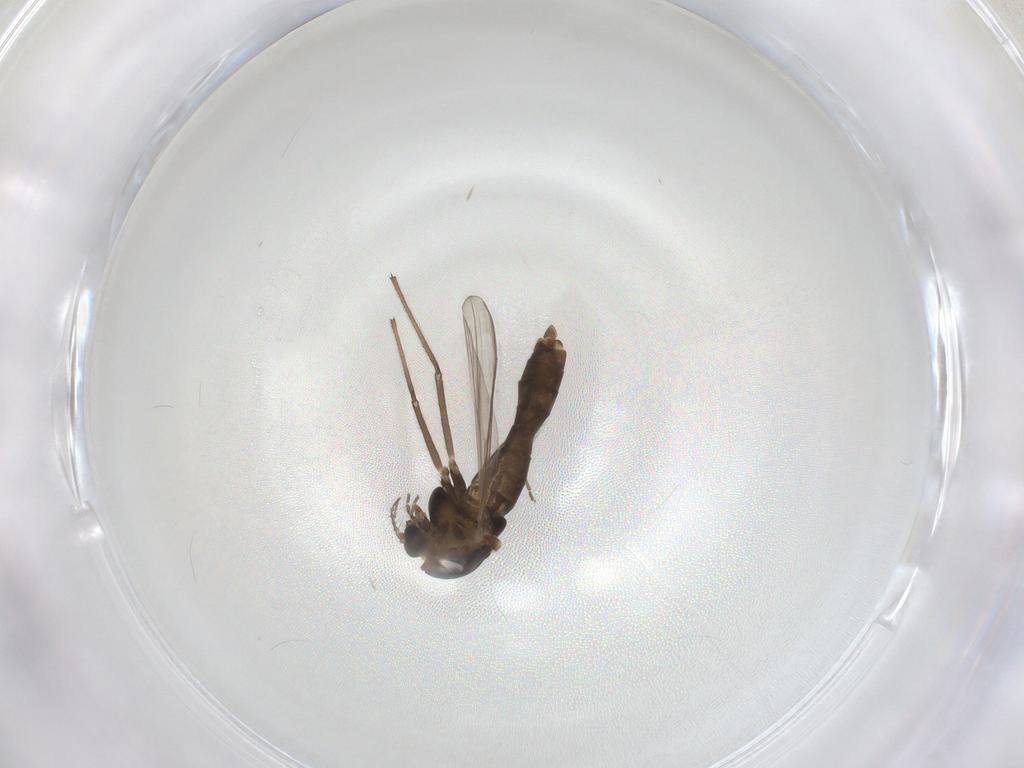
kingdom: Animalia
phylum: Arthropoda
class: Insecta
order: Diptera
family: Chironomidae
